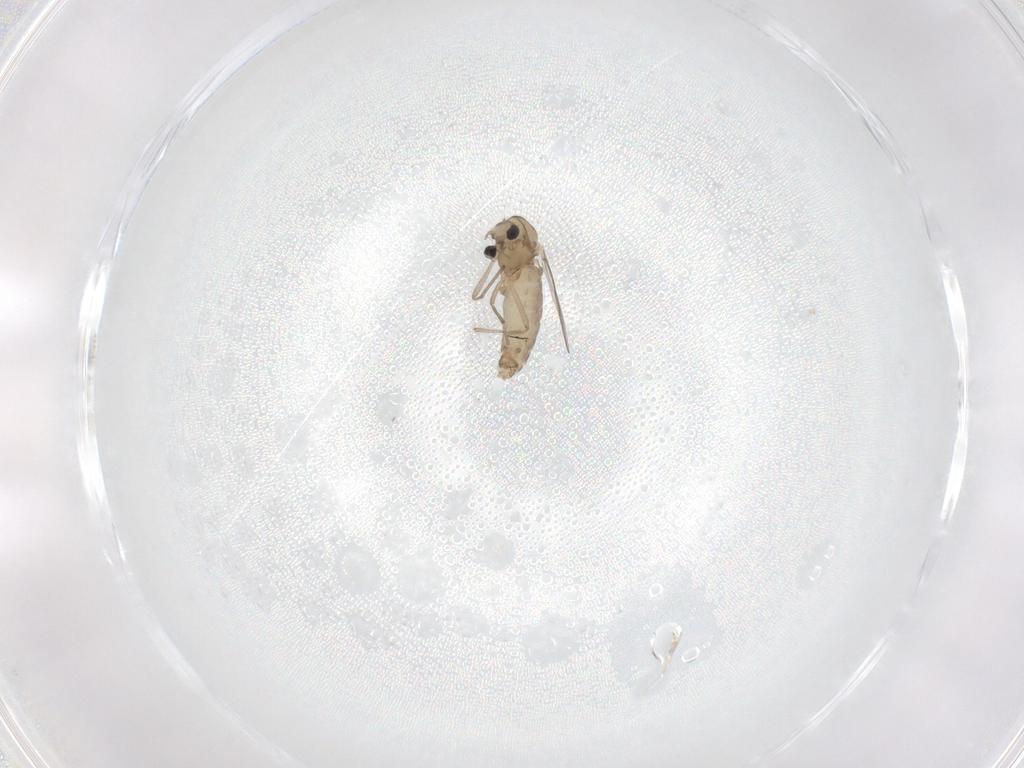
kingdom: Animalia
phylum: Arthropoda
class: Insecta
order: Diptera
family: Chironomidae
